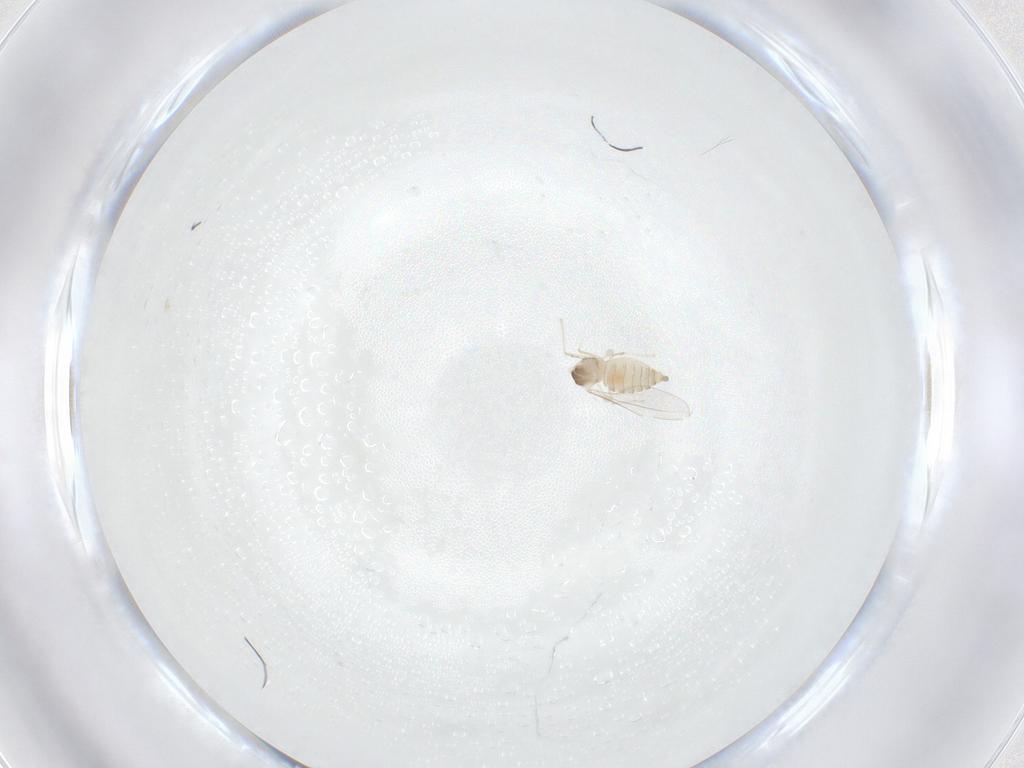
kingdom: Animalia
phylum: Arthropoda
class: Insecta
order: Diptera
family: Cecidomyiidae
